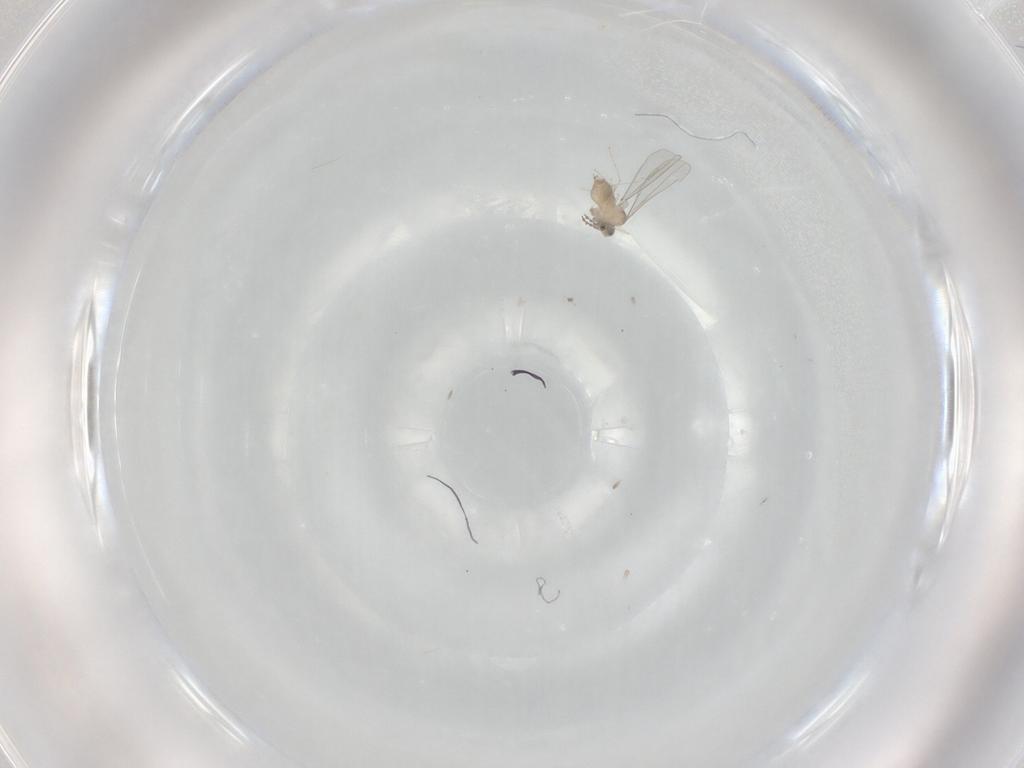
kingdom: Animalia
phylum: Arthropoda
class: Insecta
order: Diptera
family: Cecidomyiidae
